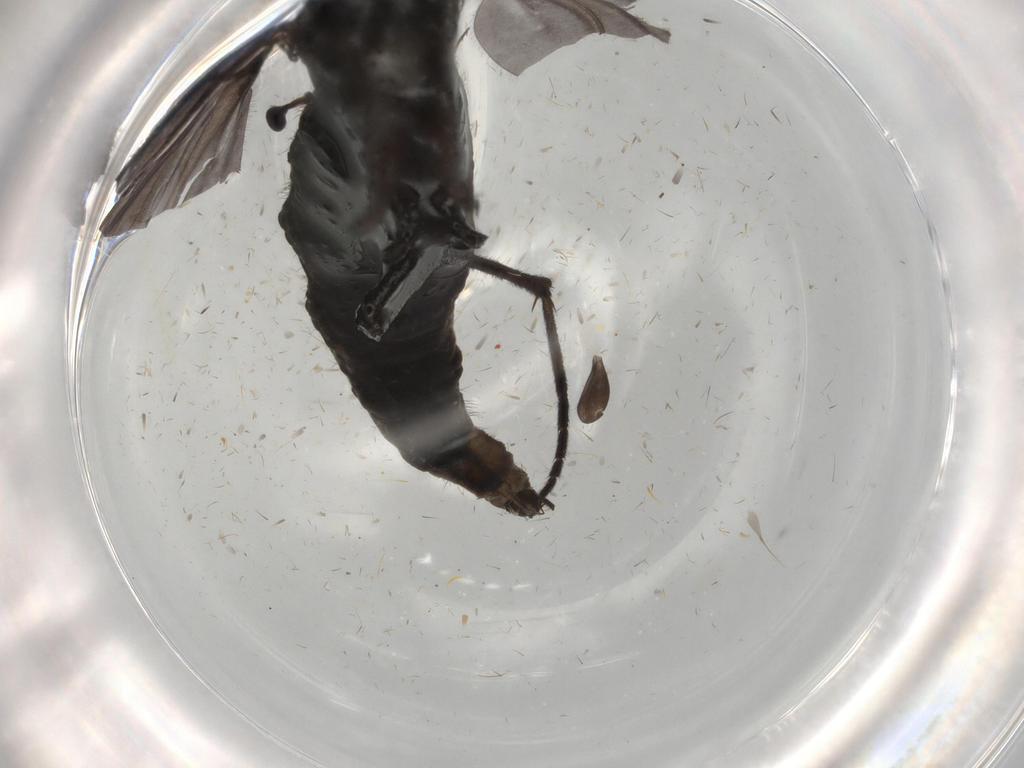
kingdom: Animalia
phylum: Arthropoda
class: Insecta
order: Diptera
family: Sciaridae
